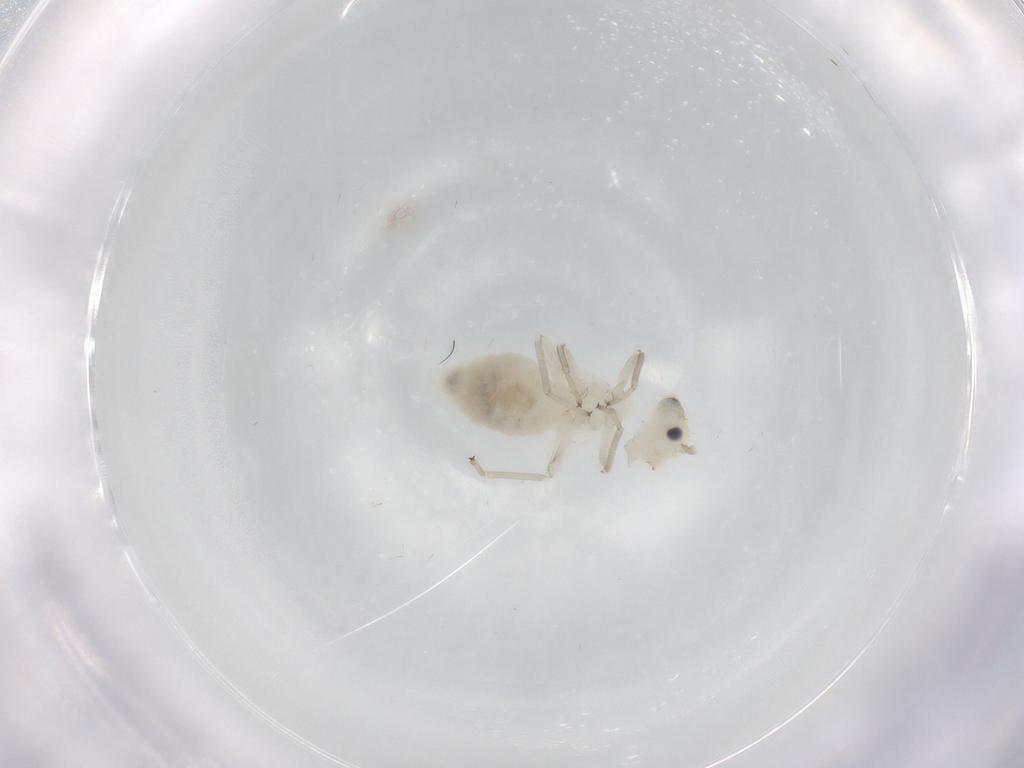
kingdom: Animalia
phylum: Arthropoda
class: Insecta
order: Psocodea
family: Caeciliusidae
